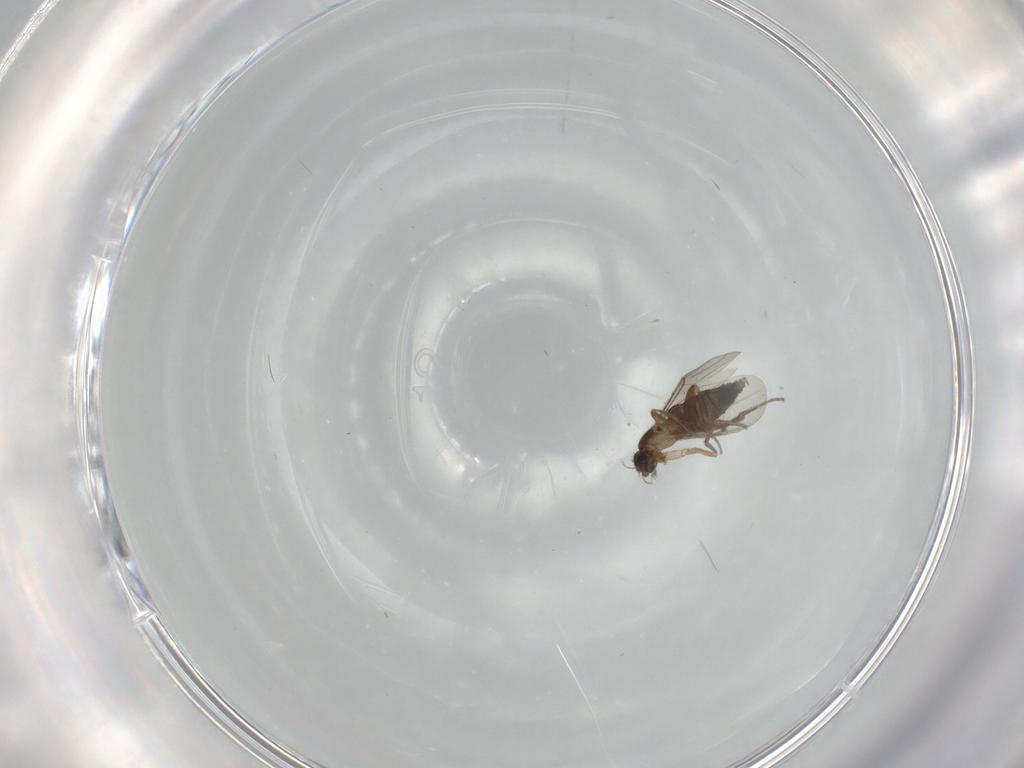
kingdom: Animalia
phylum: Arthropoda
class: Insecta
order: Diptera
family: Phoridae
